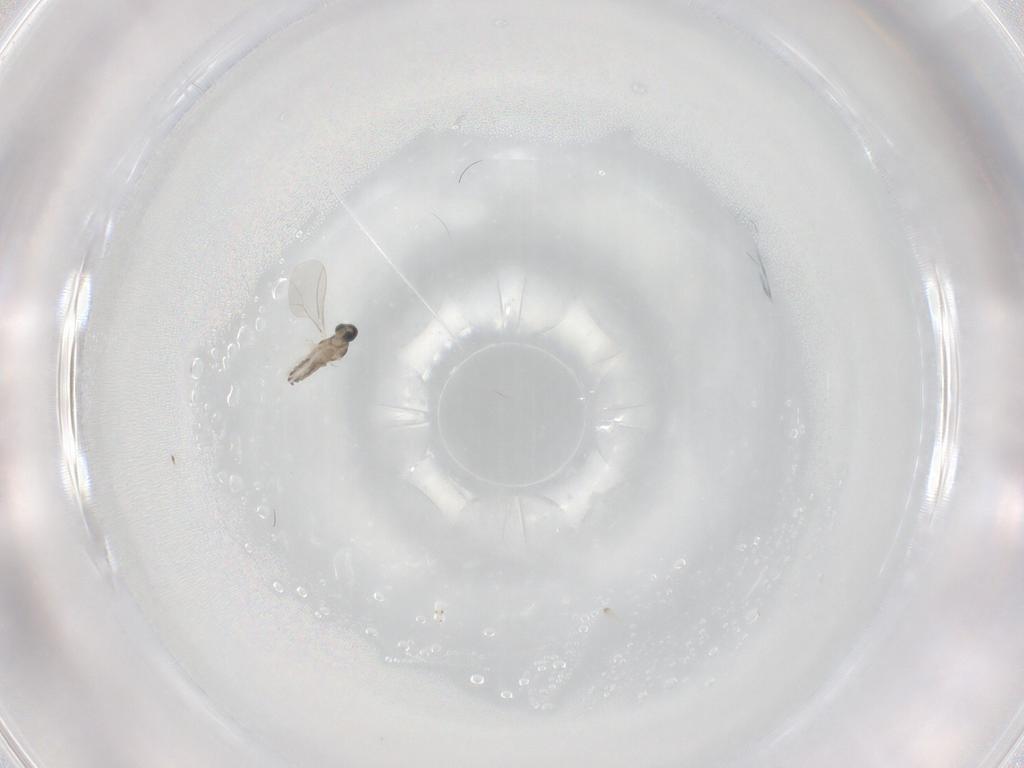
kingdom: Animalia
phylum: Arthropoda
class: Insecta
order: Diptera
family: Cecidomyiidae
